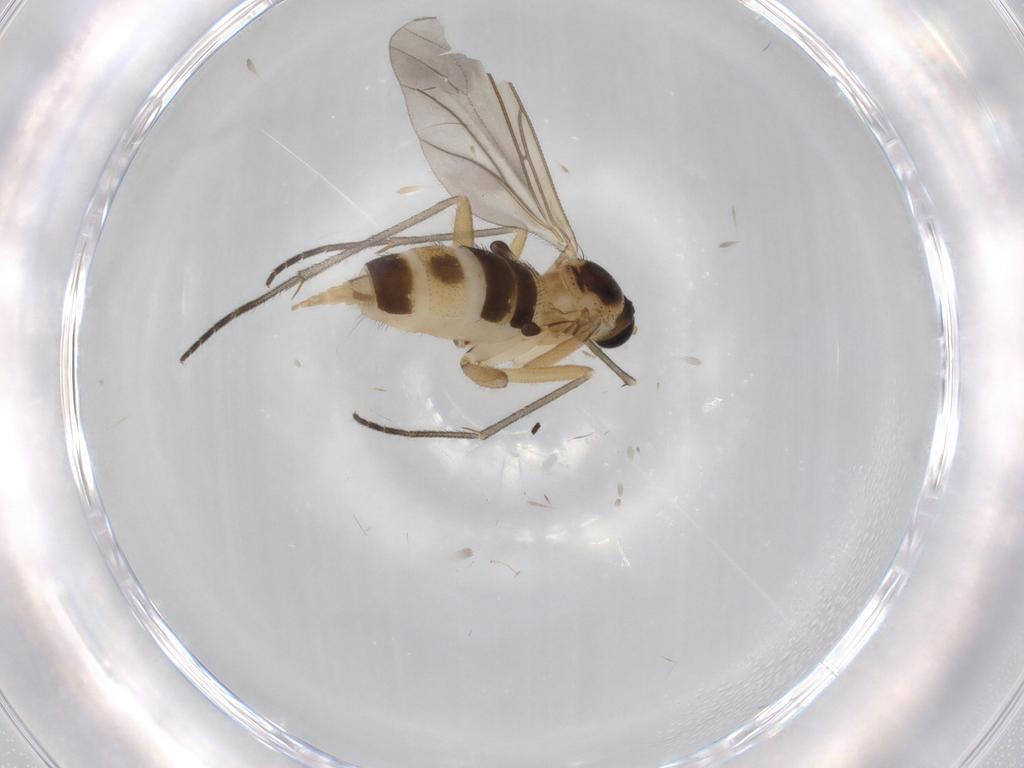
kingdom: Animalia
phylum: Arthropoda
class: Insecta
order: Diptera
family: Sciaridae
